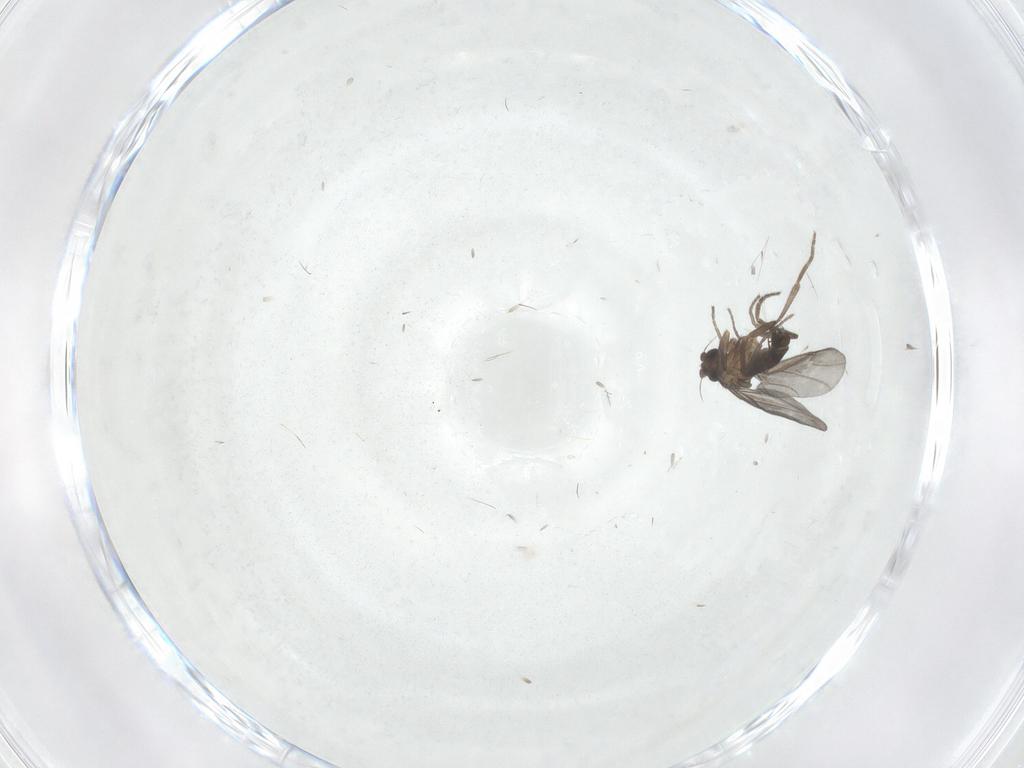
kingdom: Animalia
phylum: Arthropoda
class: Insecta
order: Diptera
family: Phoridae
